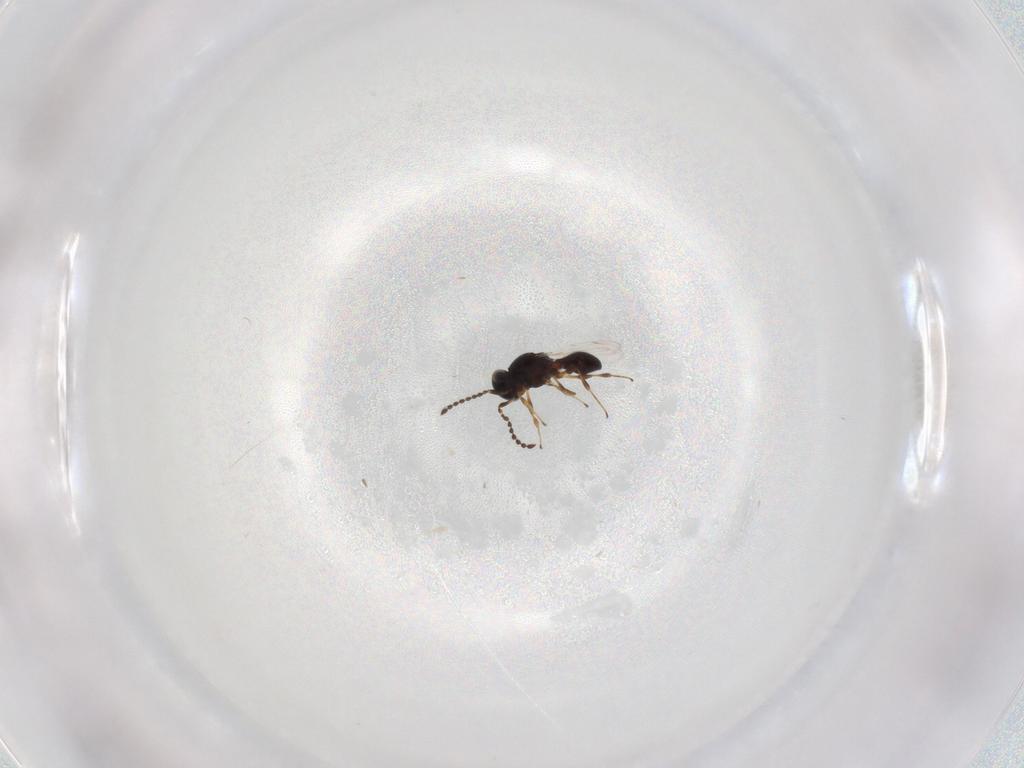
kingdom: Animalia
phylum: Arthropoda
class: Insecta
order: Hymenoptera
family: Platygastridae
